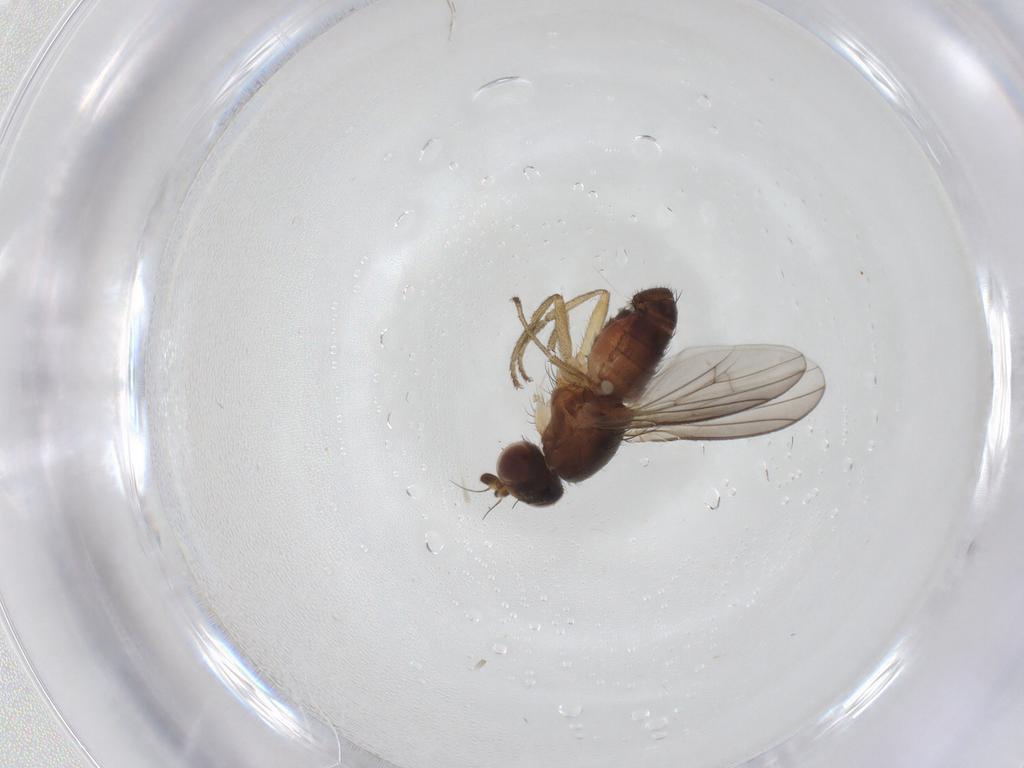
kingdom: Animalia
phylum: Arthropoda
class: Insecta
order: Diptera
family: Heleomyzidae
